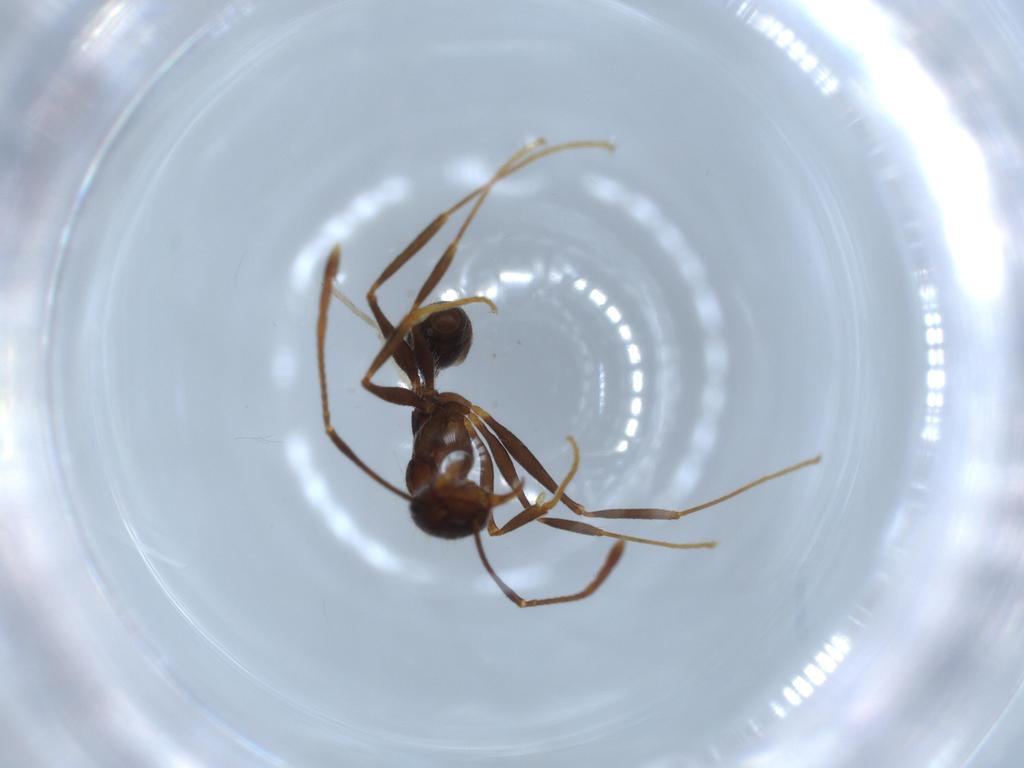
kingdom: Animalia
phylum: Arthropoda
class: Insecta
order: Hymenoptera
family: Formicidae
